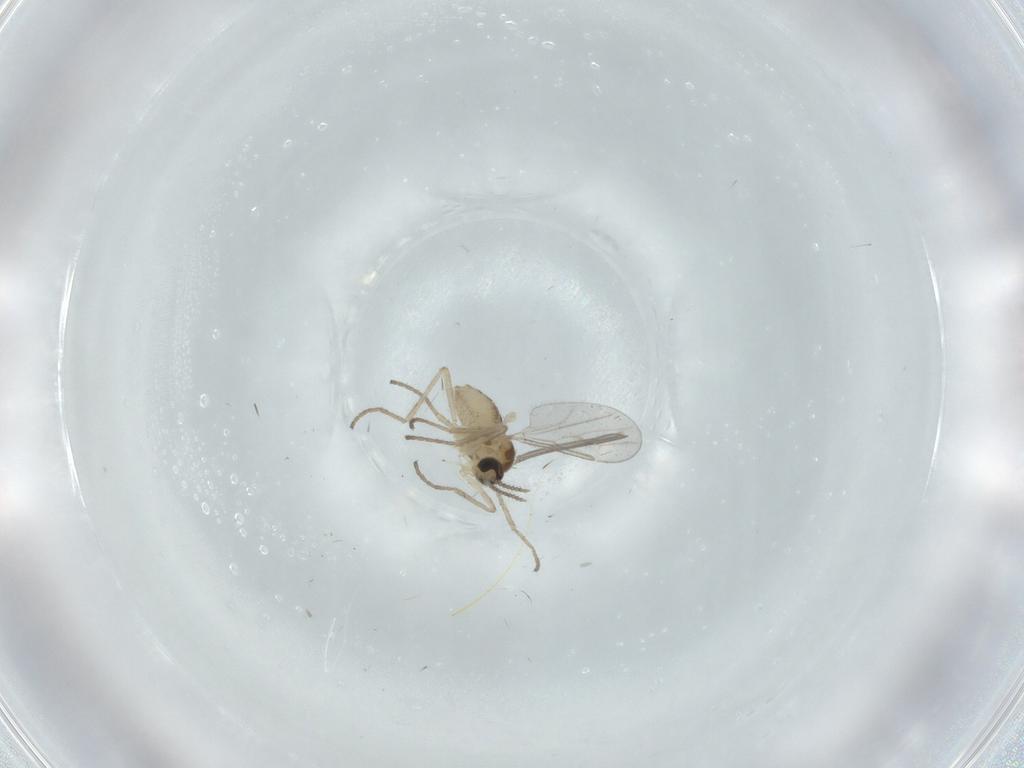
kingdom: Animalia
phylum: Arthropoda
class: Insecta
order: Diptera
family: Cecidomyiidae
